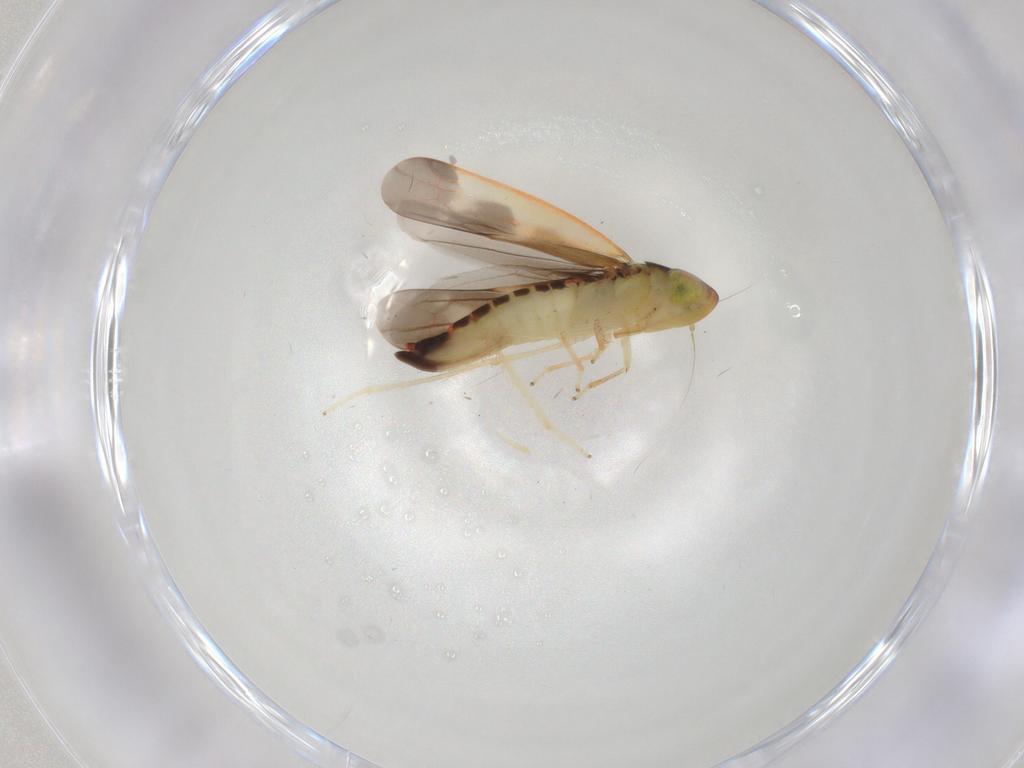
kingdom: Animalia
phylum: Arthropoda
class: Insecta
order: Hemiptera
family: Cicadellidae
